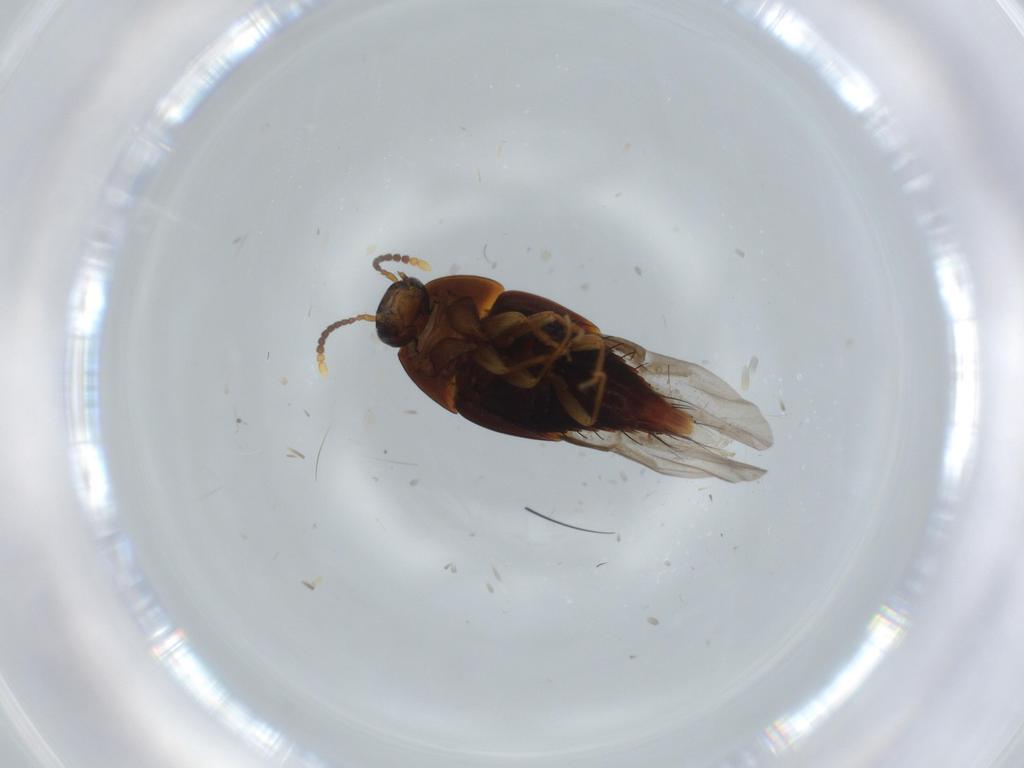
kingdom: Animalia
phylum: Arthropoda
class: Insecta
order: Coleoptera
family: Staphylinidae
